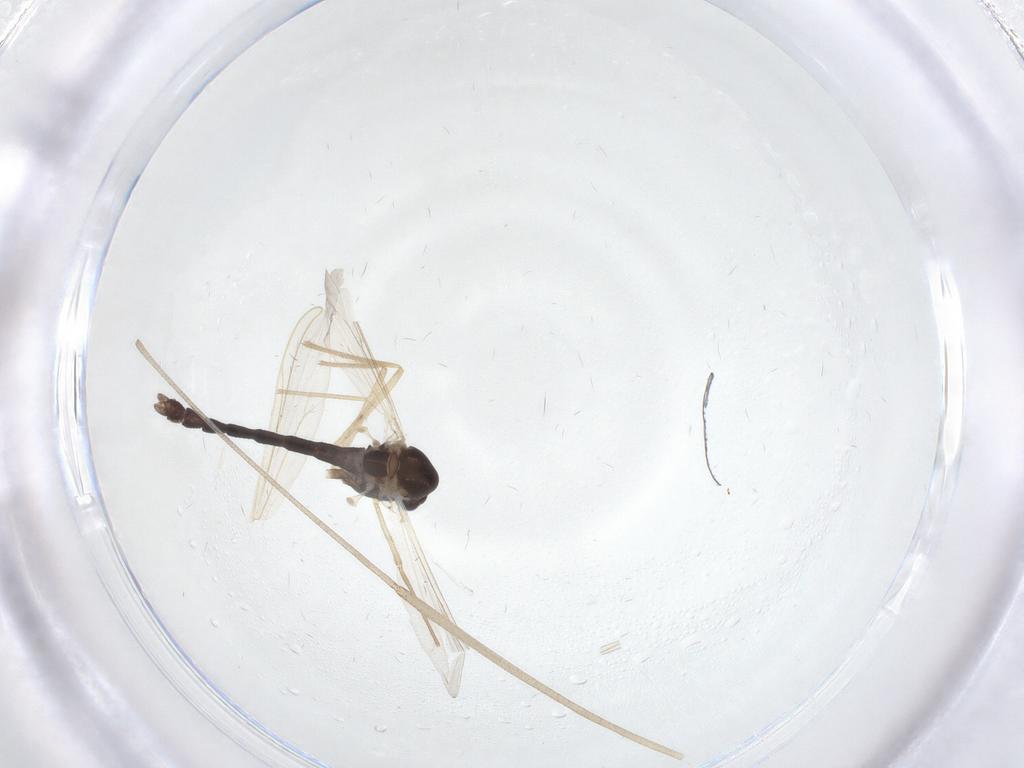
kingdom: Animalia
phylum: Arthropoda
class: Insecta
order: Diptera
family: Chironomidae
